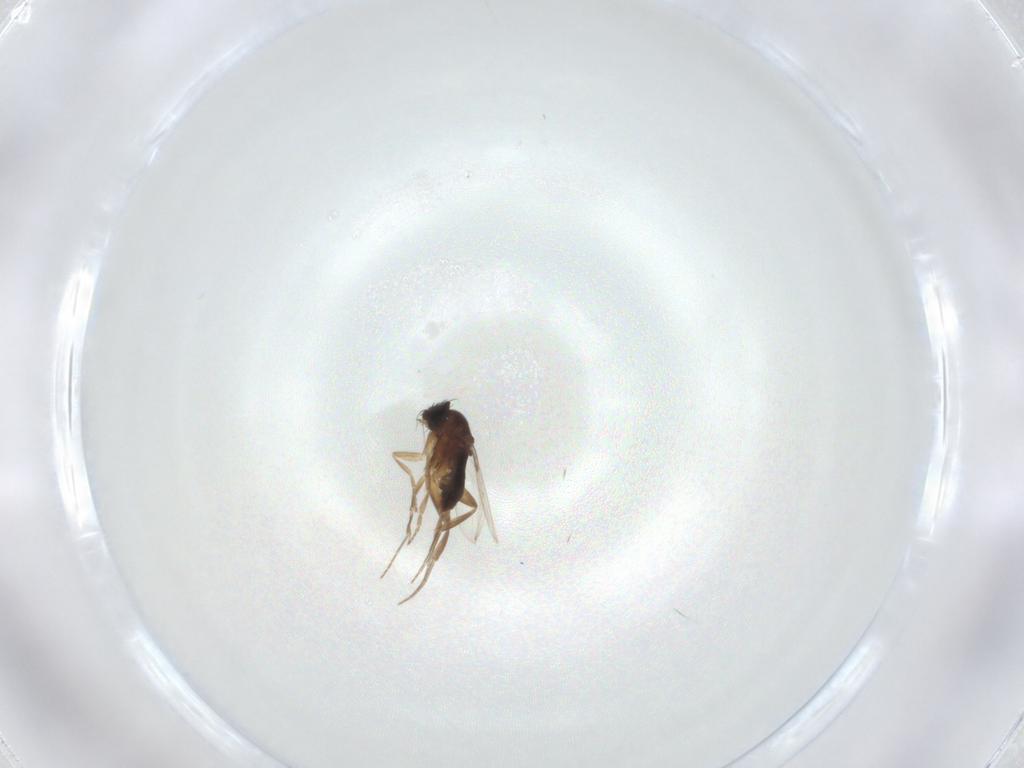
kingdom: Animalia
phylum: Arthropoda
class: Insecta
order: Diptera
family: Phoridae
